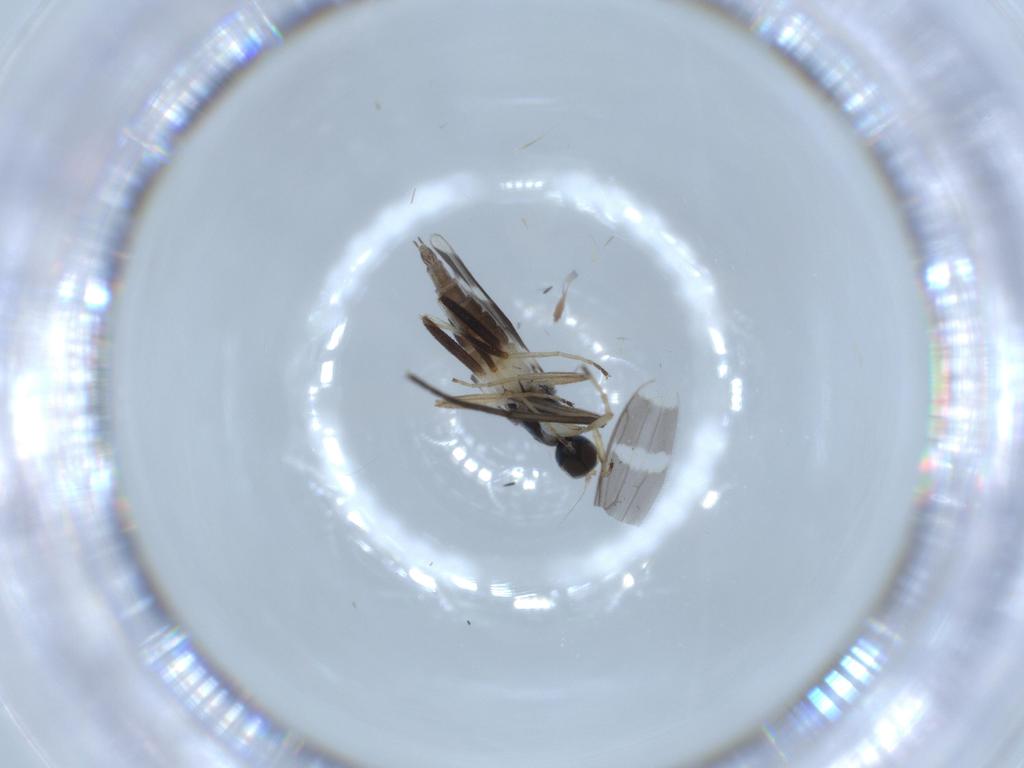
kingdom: Animalia
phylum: Arthropoda
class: Insecta
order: Diptera
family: Hybotidae
